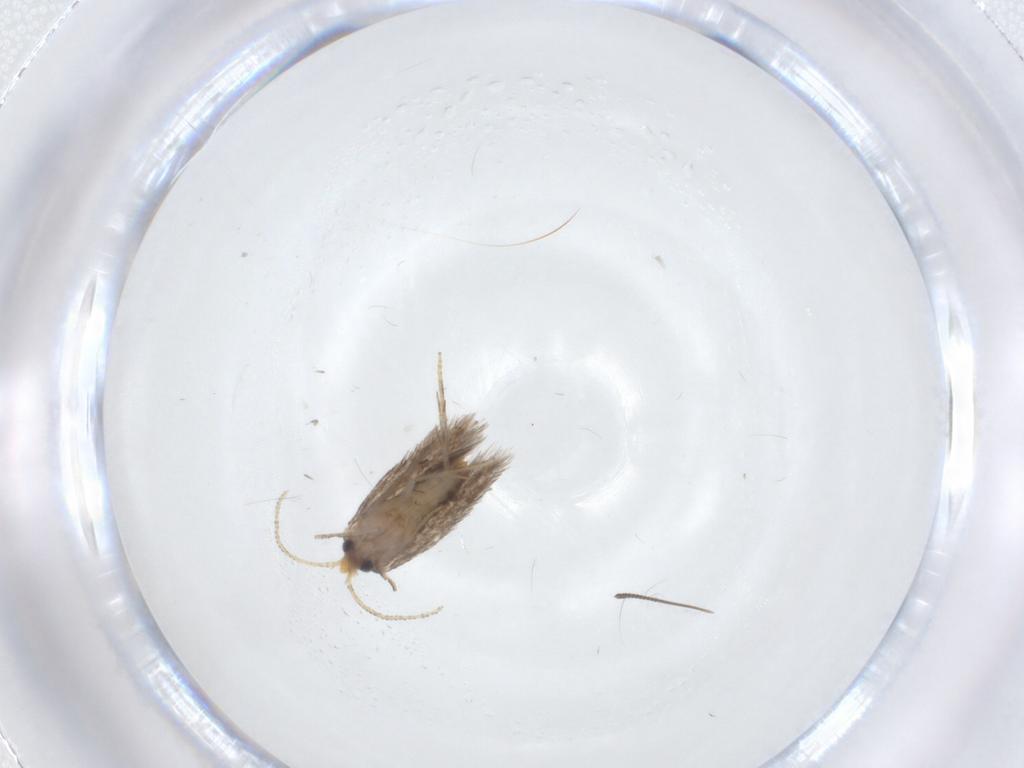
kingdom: Animalia
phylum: Arthropoda
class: Insecta
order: Lepidoptera
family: Nepticulidae
